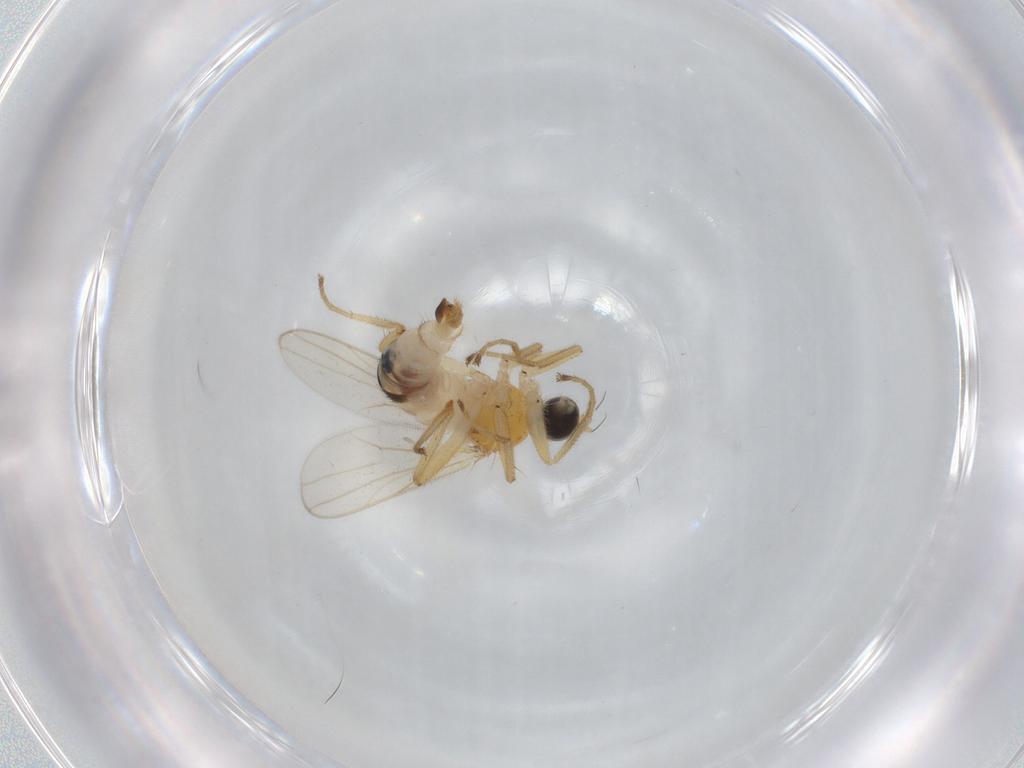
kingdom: Animalia
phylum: Arthropoda
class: Insecta
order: Diptera
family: Hybotidae
